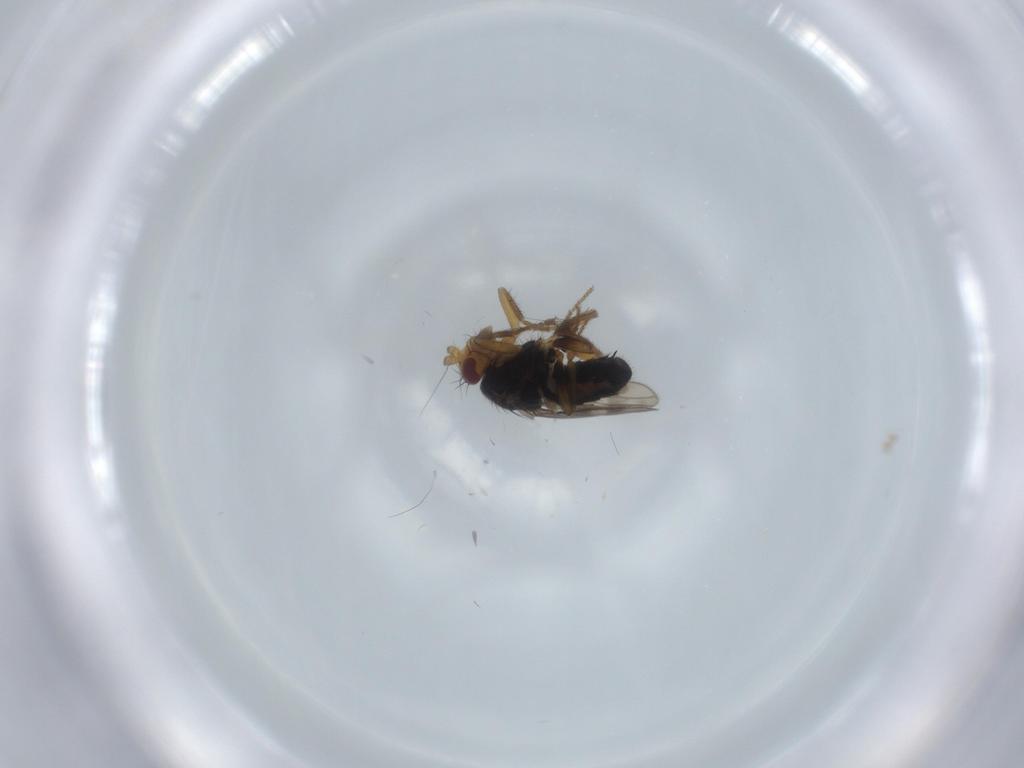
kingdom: Animalia
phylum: Arthropoda
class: Insecta
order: Diptera
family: Sphaeroceridae
